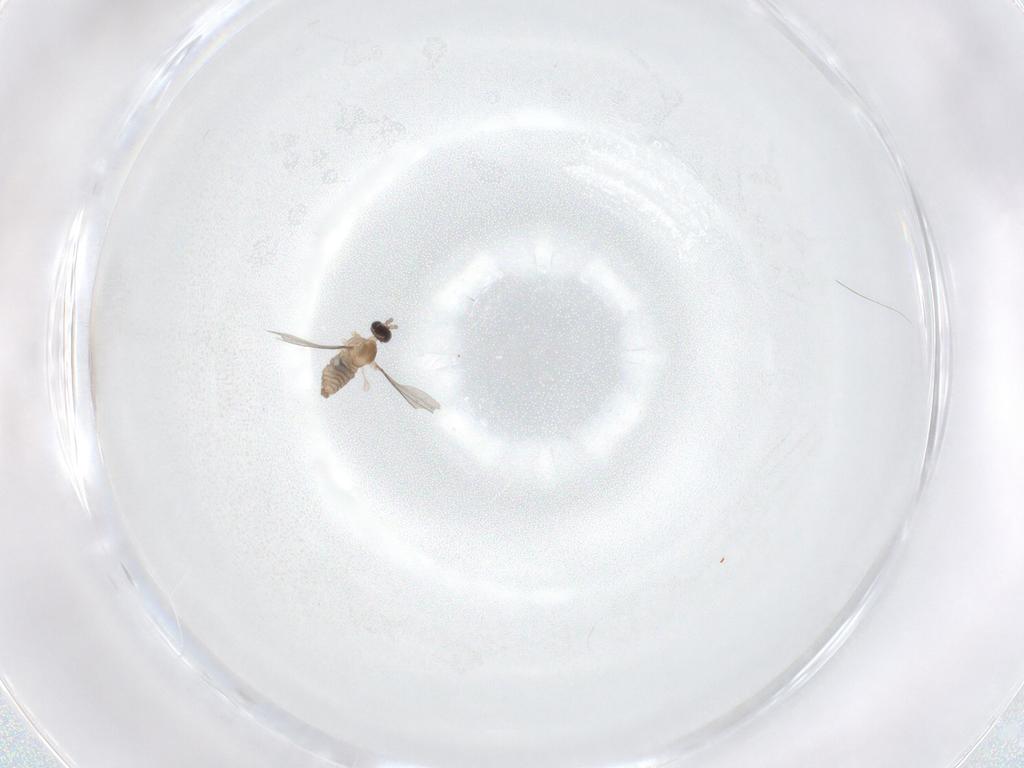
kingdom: Animalia
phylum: Arthropoda
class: Insecta
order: Diptera
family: Cecidomyiidae
